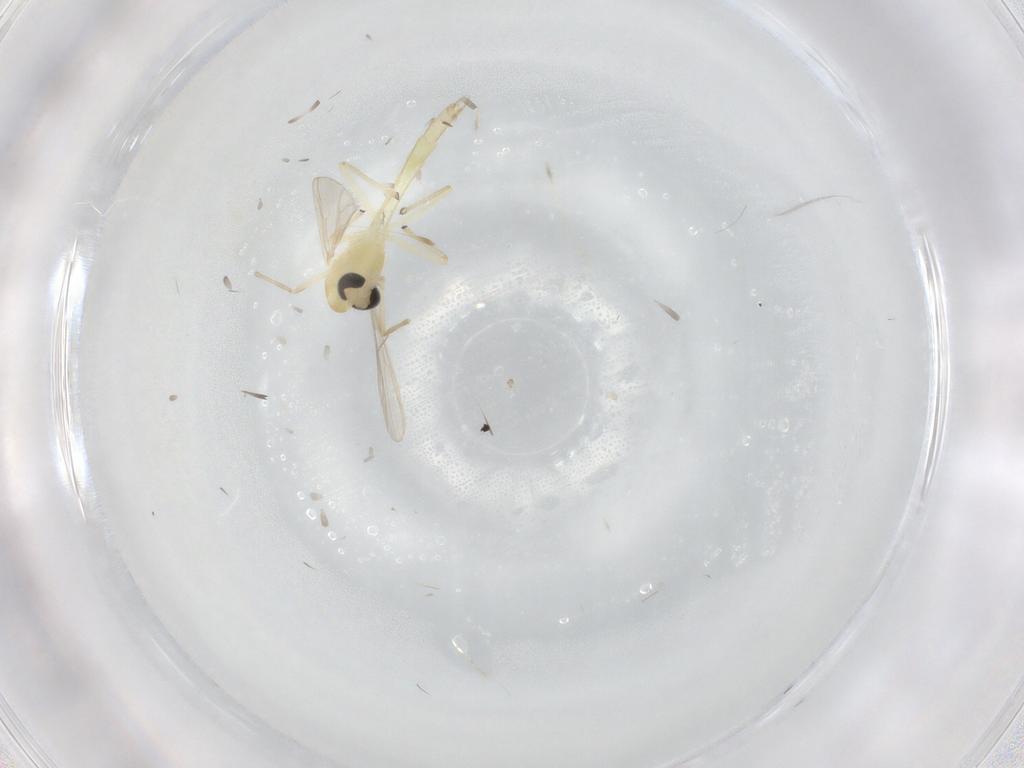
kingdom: Animalia
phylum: Arthropoda
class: Insecta
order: Diptera
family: Chironomidae
